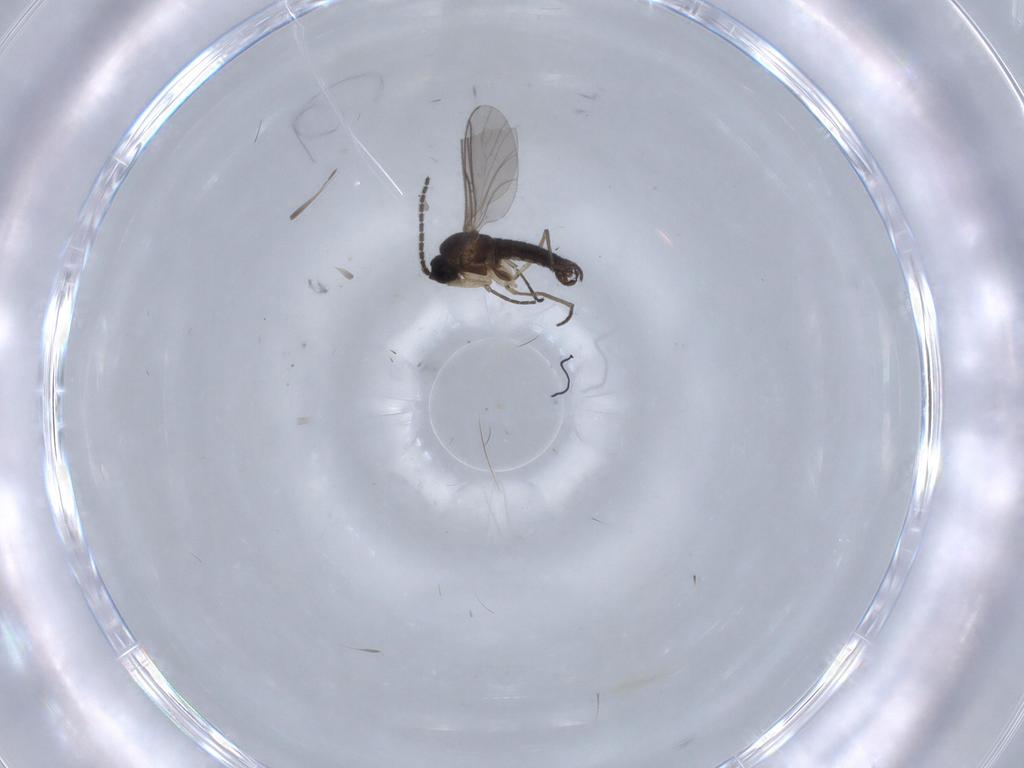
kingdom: Animalia
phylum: Arthropoda
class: Insecta
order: Diptera
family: Sciaridae
